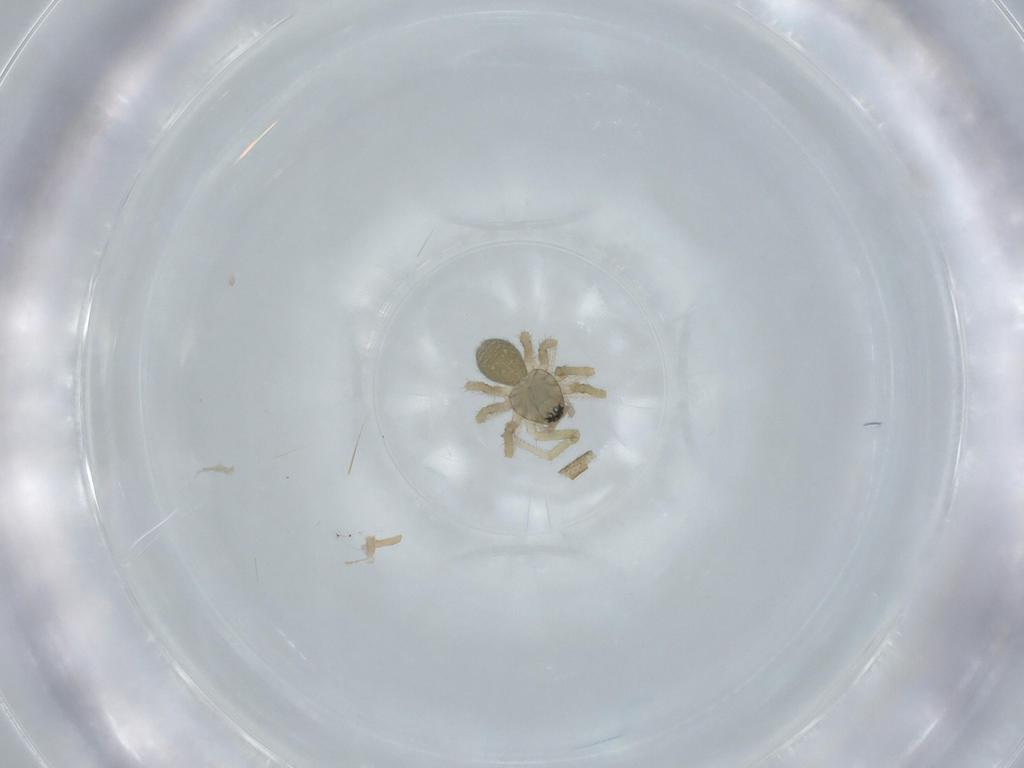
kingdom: Animalia
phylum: Arthropoda
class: Arachnida
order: Araneae
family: Linyphiidae
